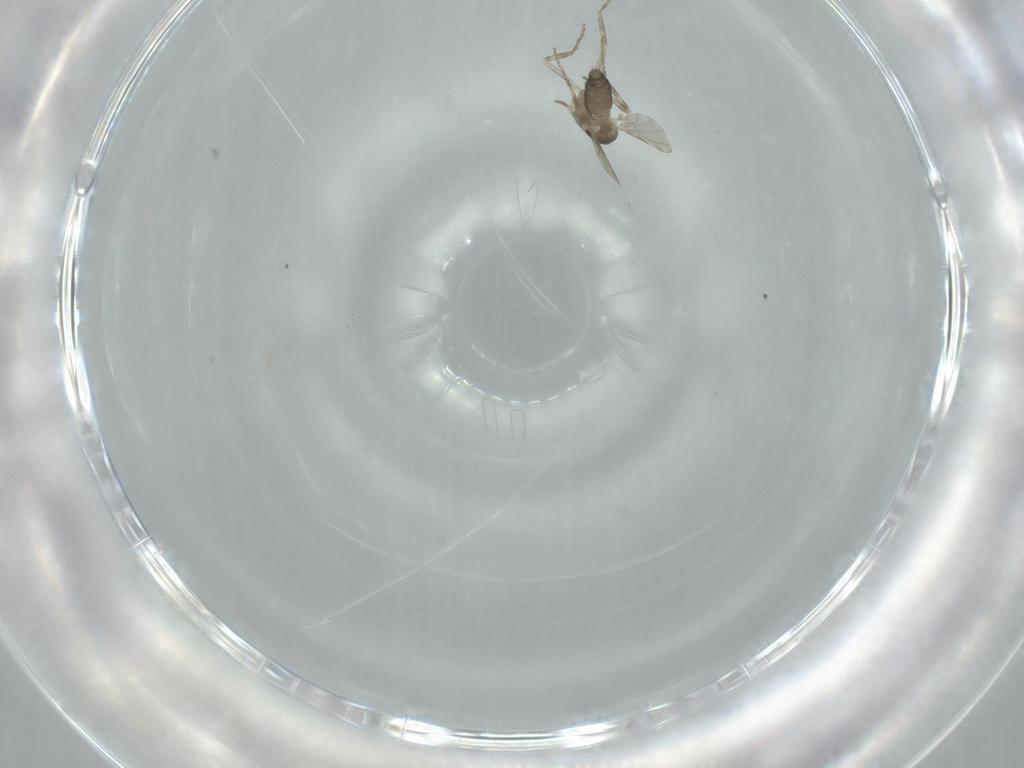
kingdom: Animalia
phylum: Arthropoda
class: Insecta
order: Diptera
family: Ceratopogonidae
